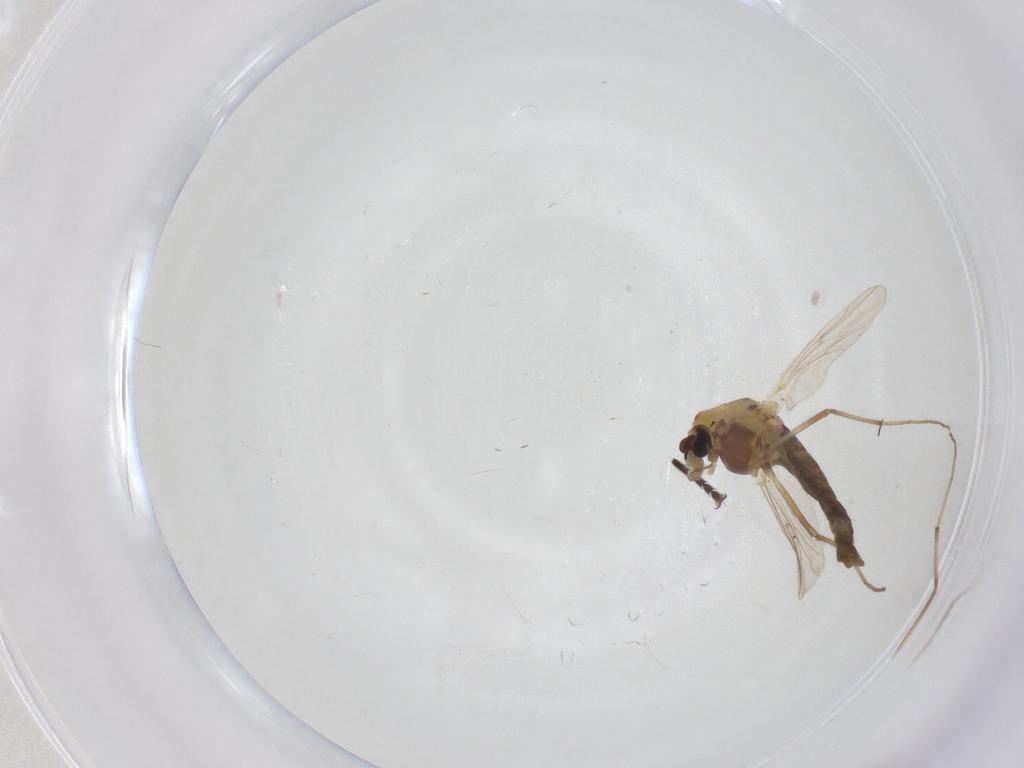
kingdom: Animalia
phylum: Arthropoda
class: Insecta
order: Diptera
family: Chironomidae
